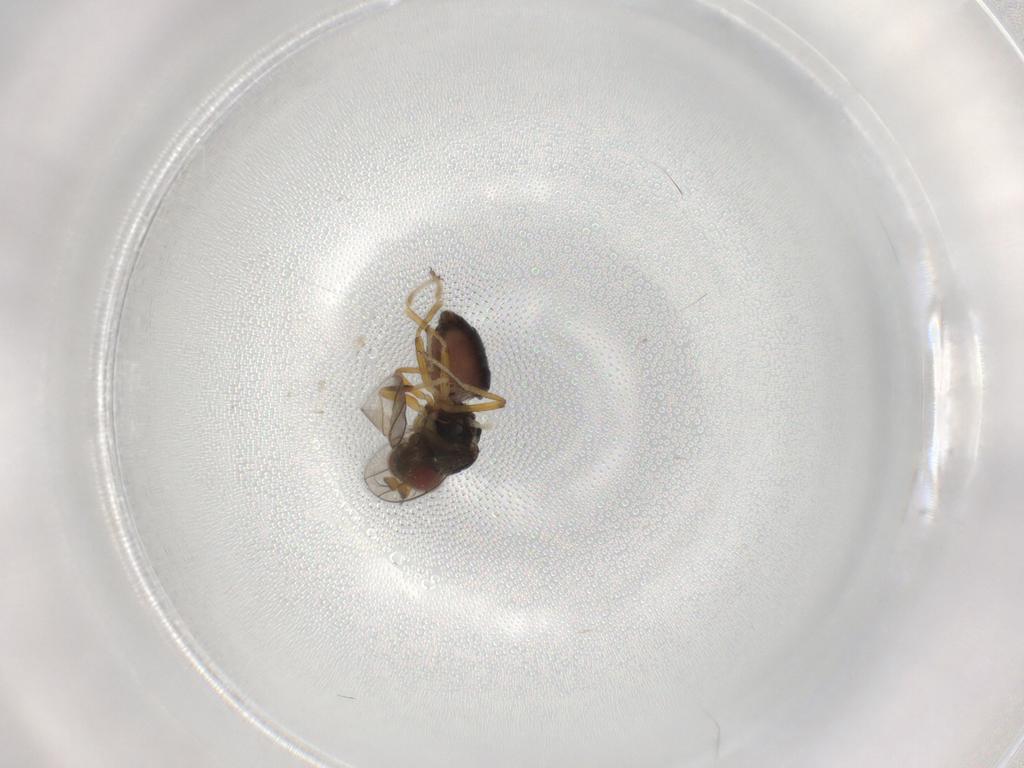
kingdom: Animalia
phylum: Arthropoda
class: Insecta
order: Diptera
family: Ephydridae
